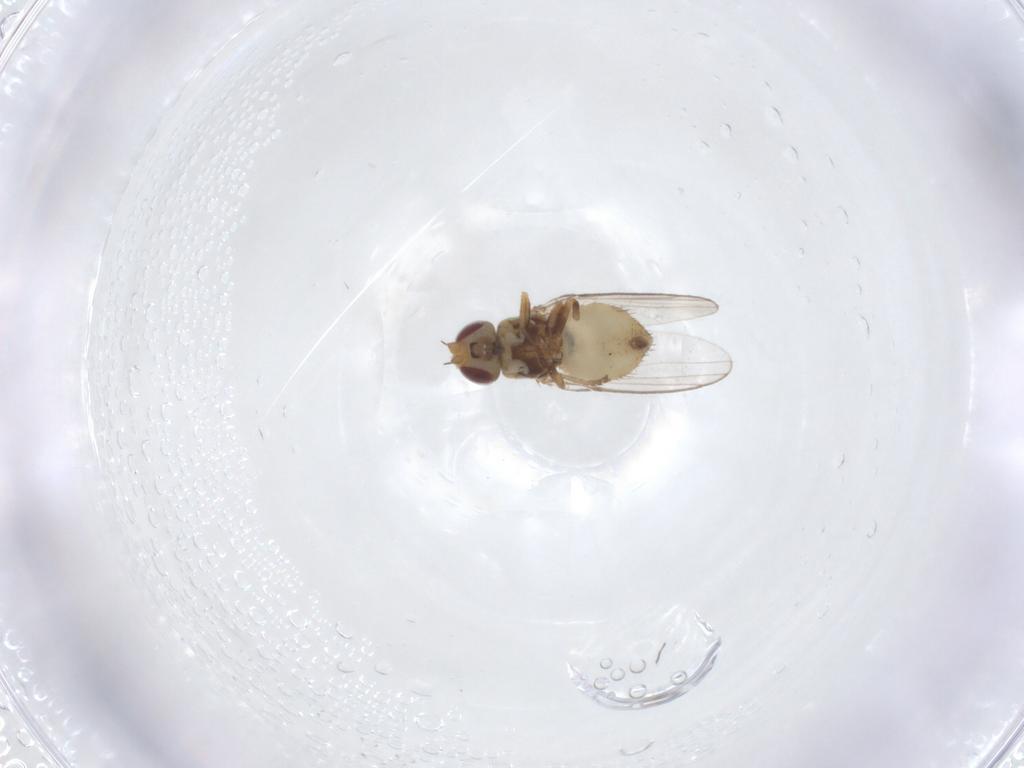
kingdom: Animalia
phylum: Arthropoda
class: Insecta
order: Diptera
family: Chloropidae
